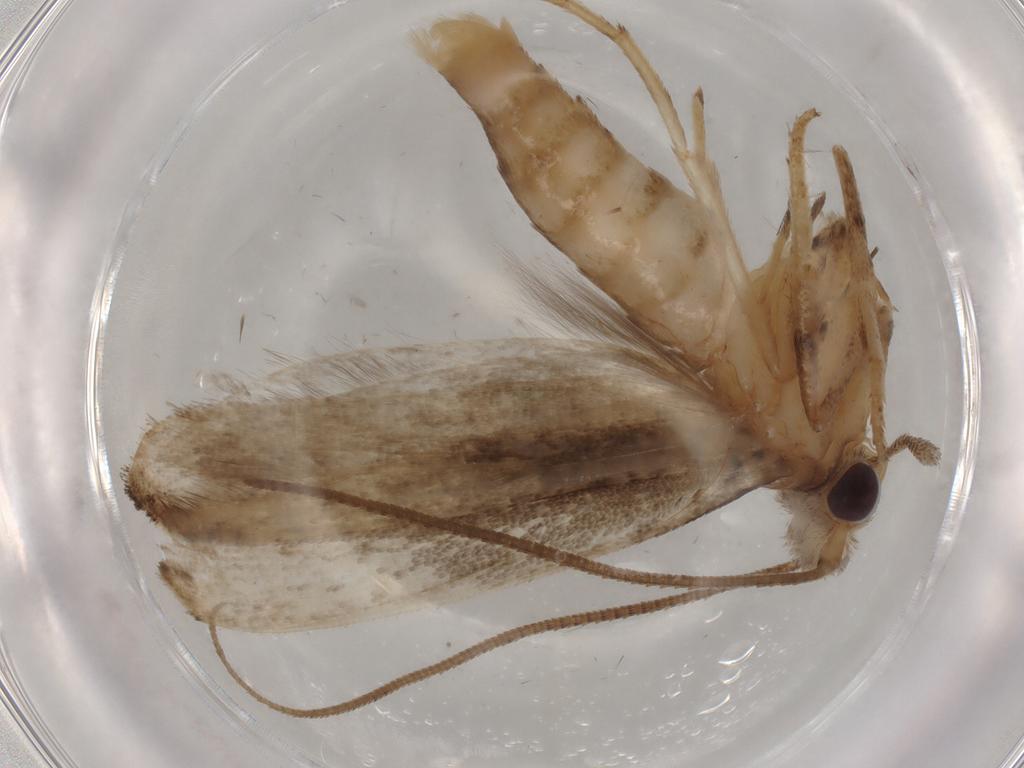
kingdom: Animalia
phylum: Arthropoda
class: Insecta
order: Lepidoptera
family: Yponomeutidae
